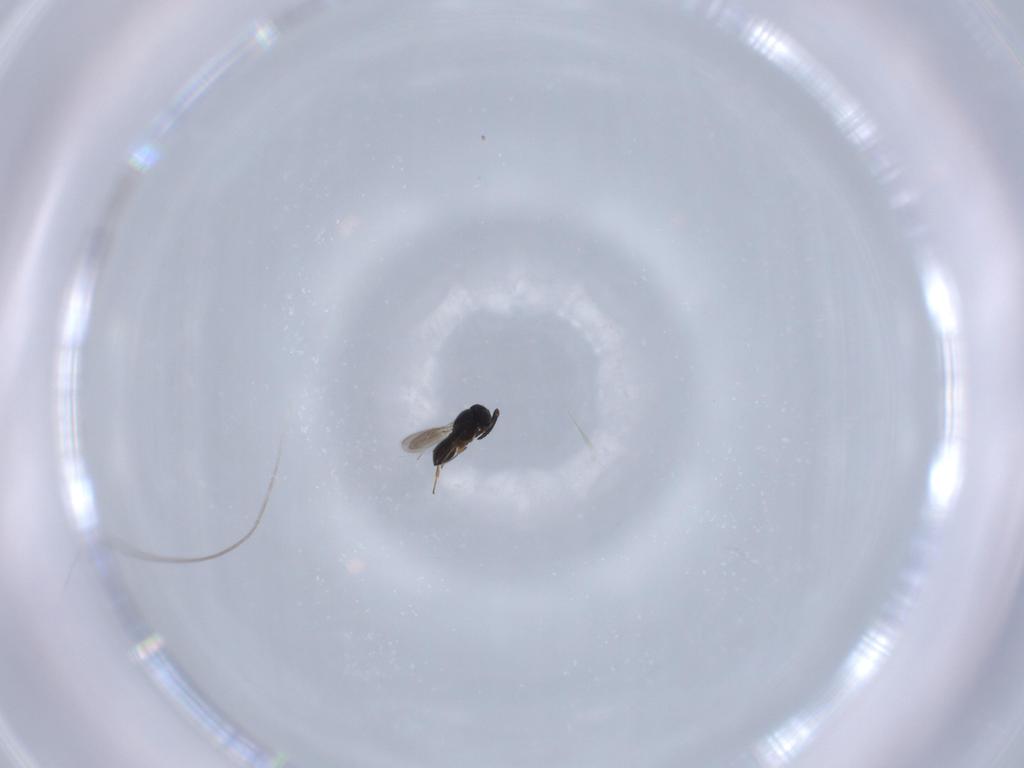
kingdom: Animalia
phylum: Arthropoda
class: Insecta
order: Hymenoptera
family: Scelionidae
